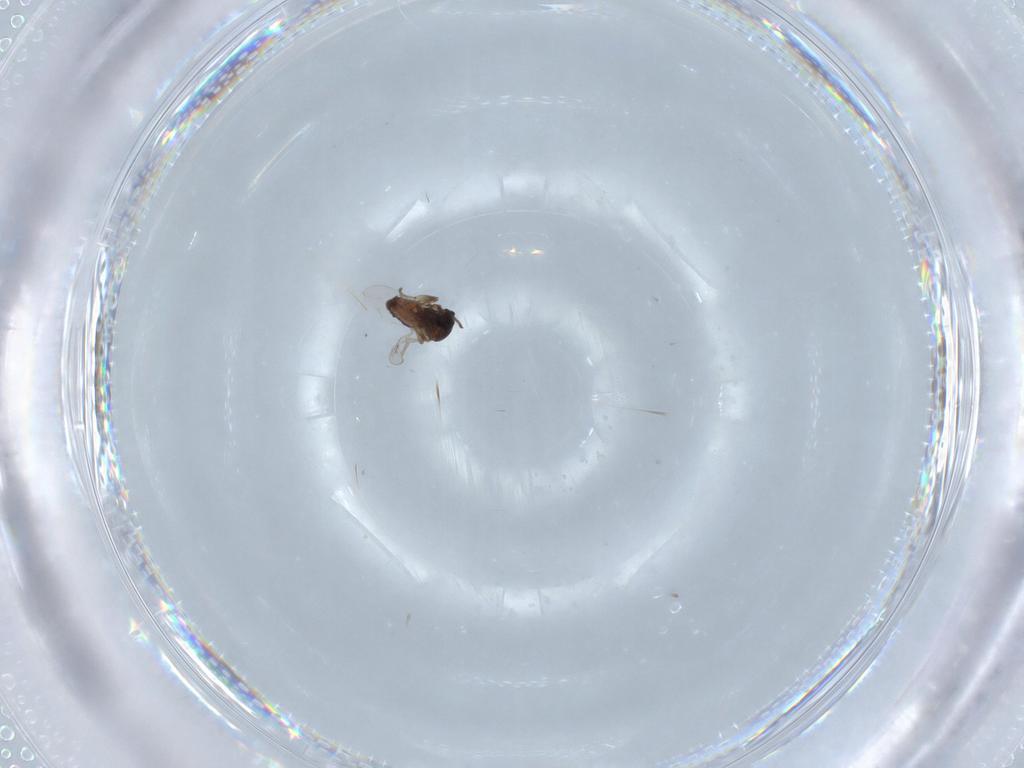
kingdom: Animalia
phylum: Arthropoda
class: Insecta
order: Diptera
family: Ceratopogonidae
